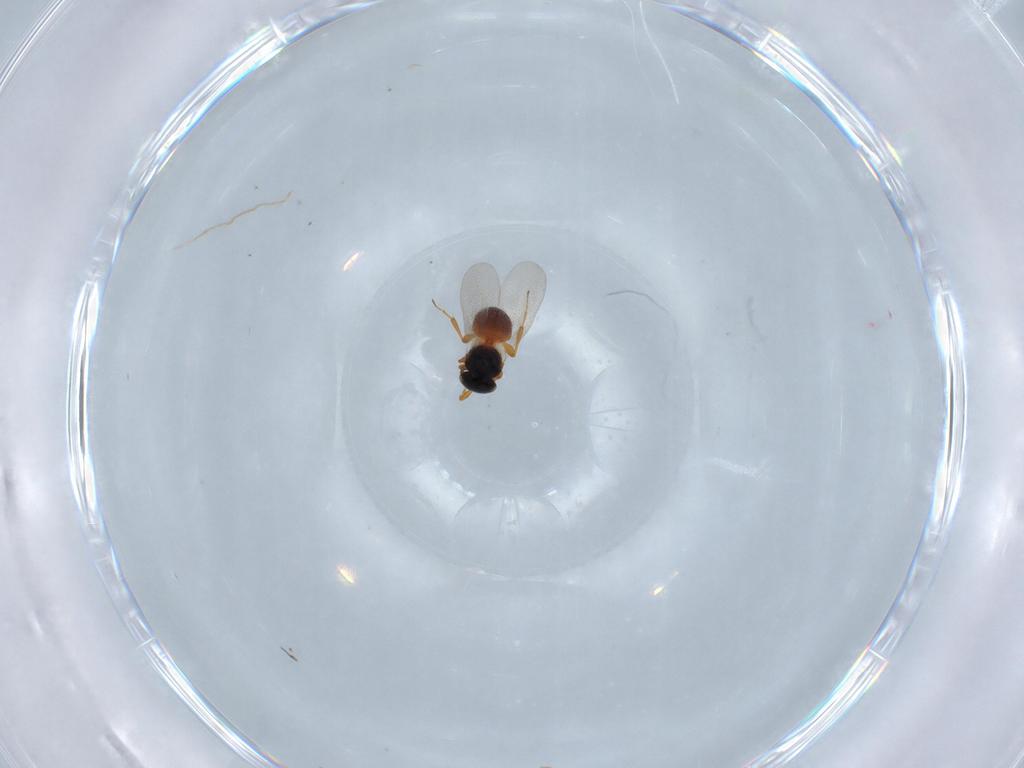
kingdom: Animalia
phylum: Arthropoda
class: Insecta
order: Hymenoptera
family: Platygastridae
